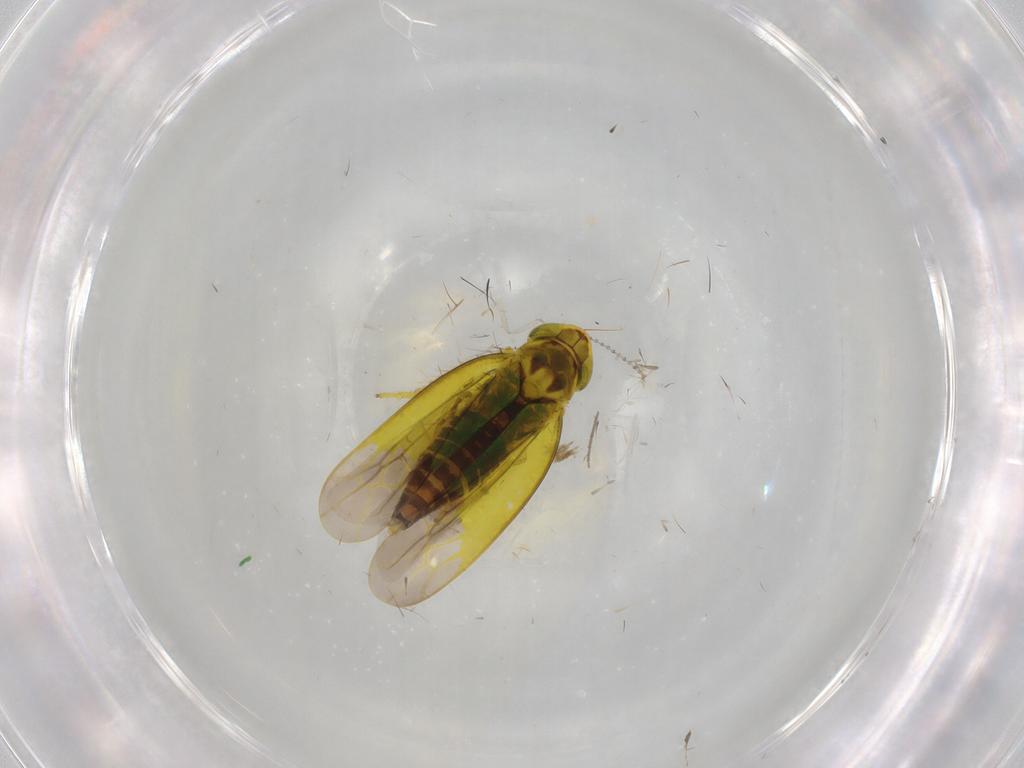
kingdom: Animalia
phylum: Arthropoda
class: Insecta
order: Hemiptera
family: Cicadellidae
